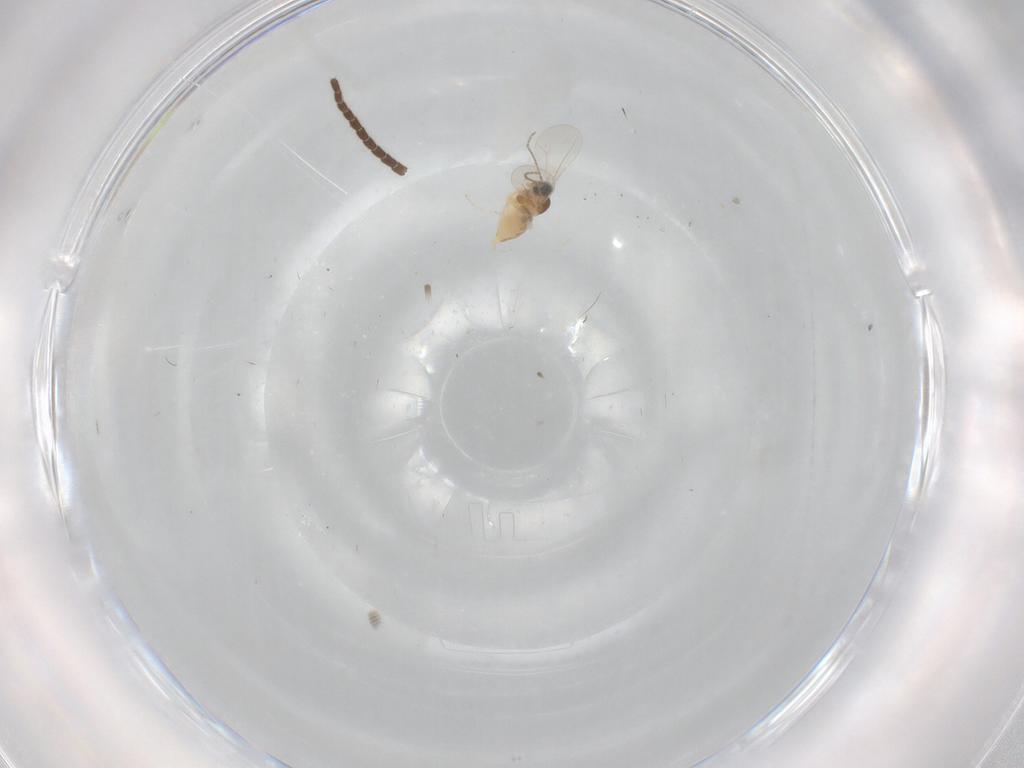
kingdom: Animalia
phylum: Arthropoda
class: Insecta
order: Diptera
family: Cecidomyiidae
